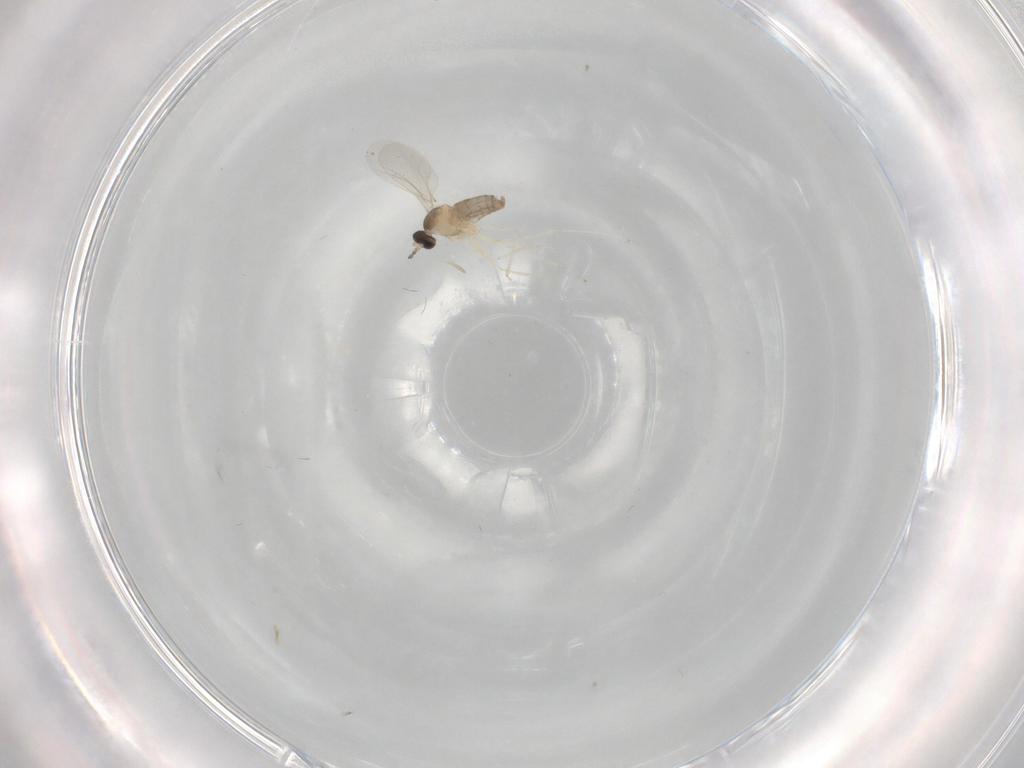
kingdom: Animalia
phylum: Arthropoda
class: Insecta
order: Diptera
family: Cecidomyiidae
